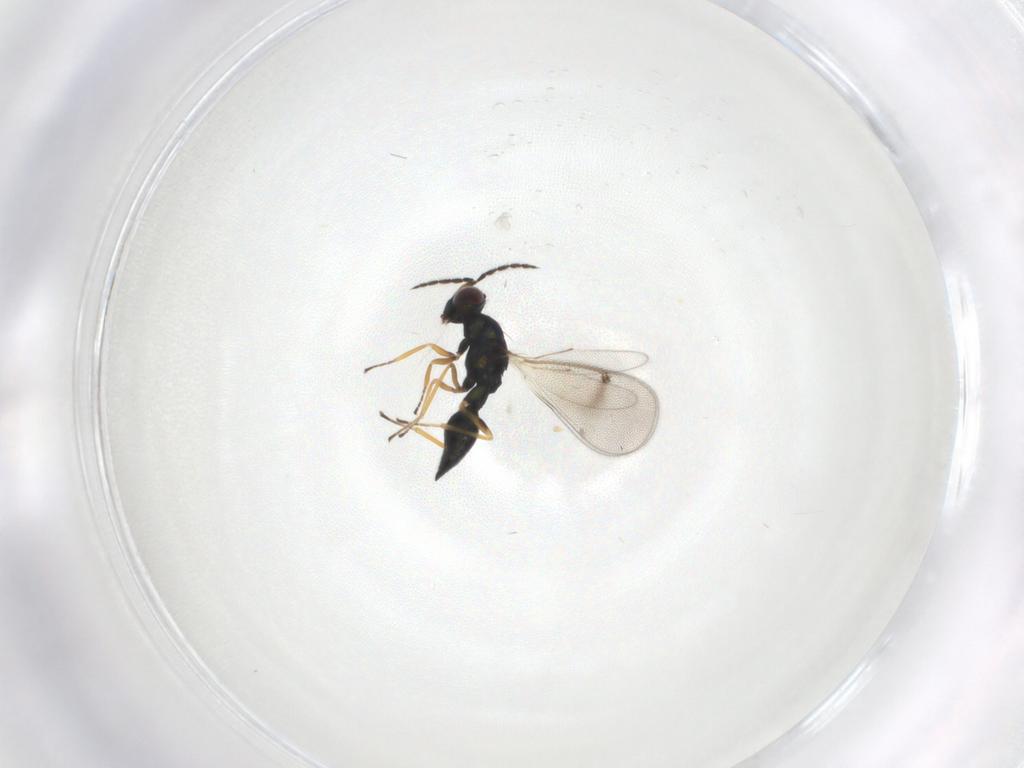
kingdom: Animalia
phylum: Arthropoda
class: Insecta
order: Hymenoptera
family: Eulophidae
